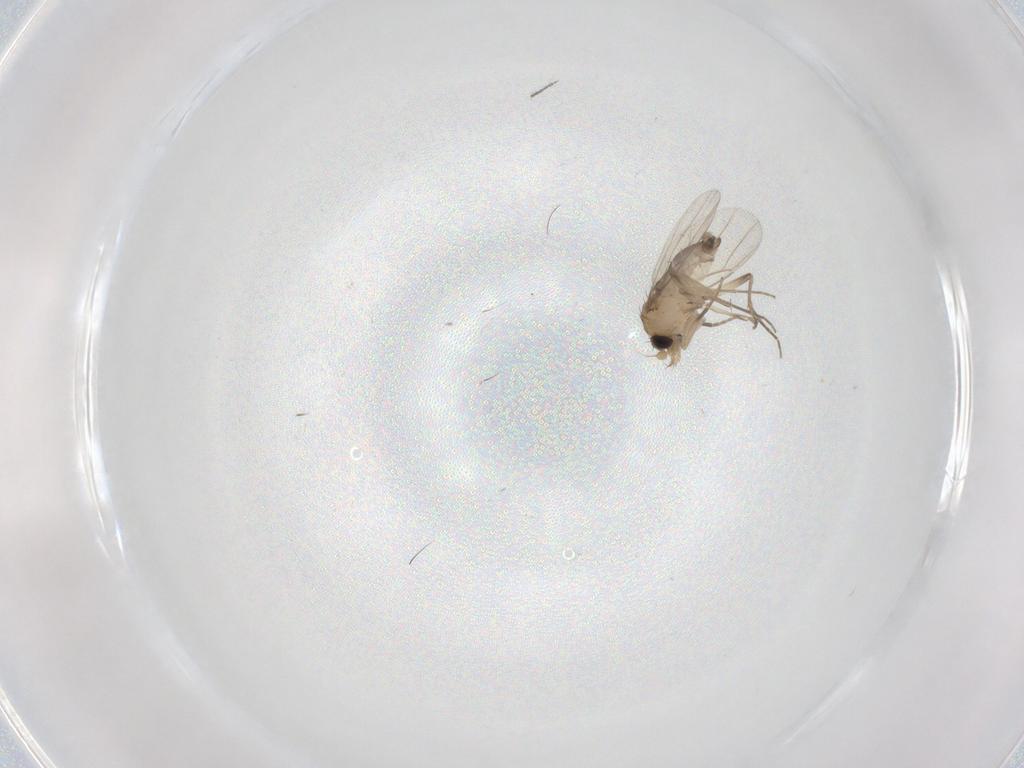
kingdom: Animalia
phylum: Arthropoda
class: Insecta
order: Diptera
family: Phoridae
